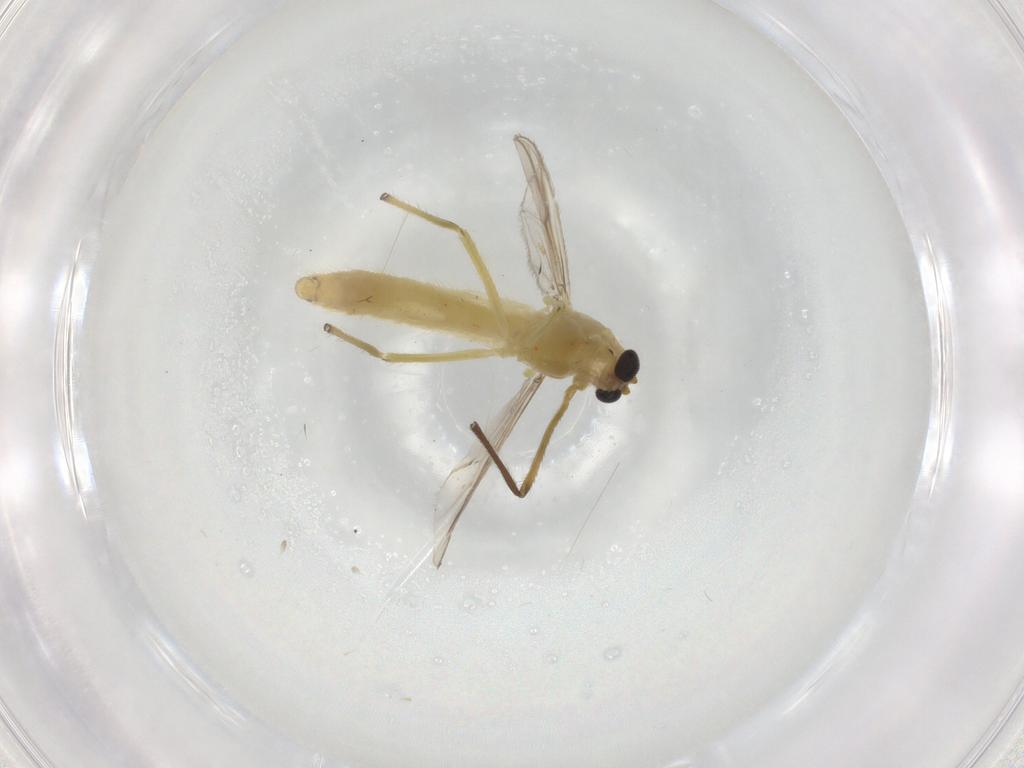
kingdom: Animalia
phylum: Arthropoda
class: Insecta
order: Diptera
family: Chironomidae
